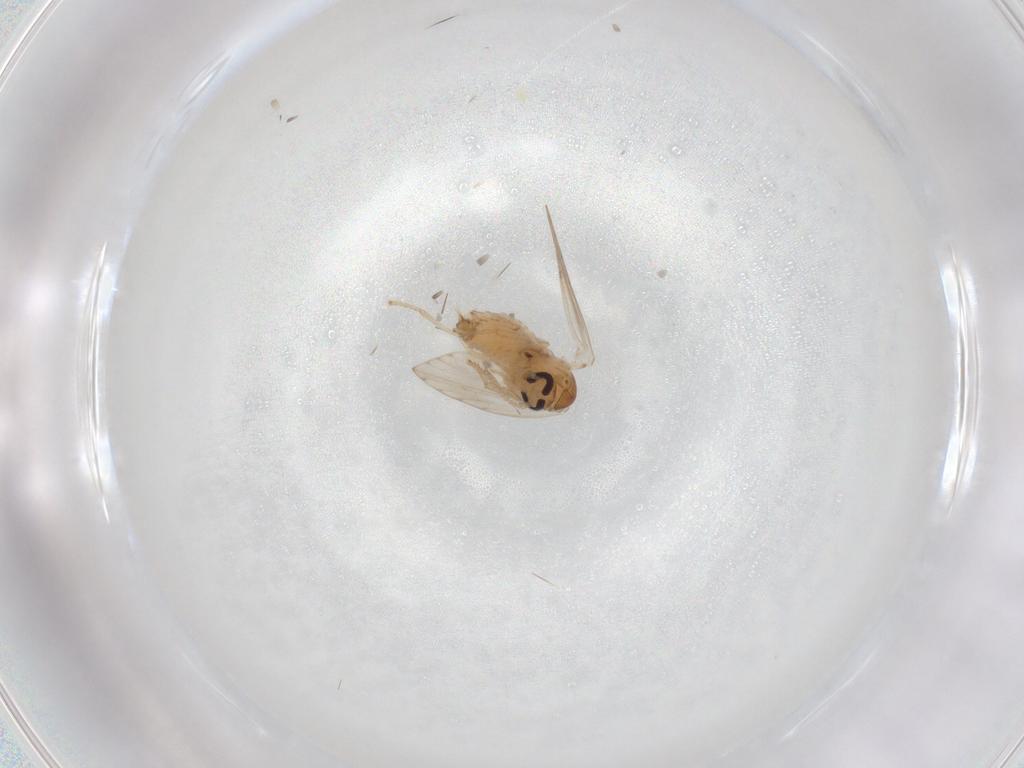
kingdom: Animalia
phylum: Arthropoda
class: Insecta
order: Diptera
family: Psychodidae
